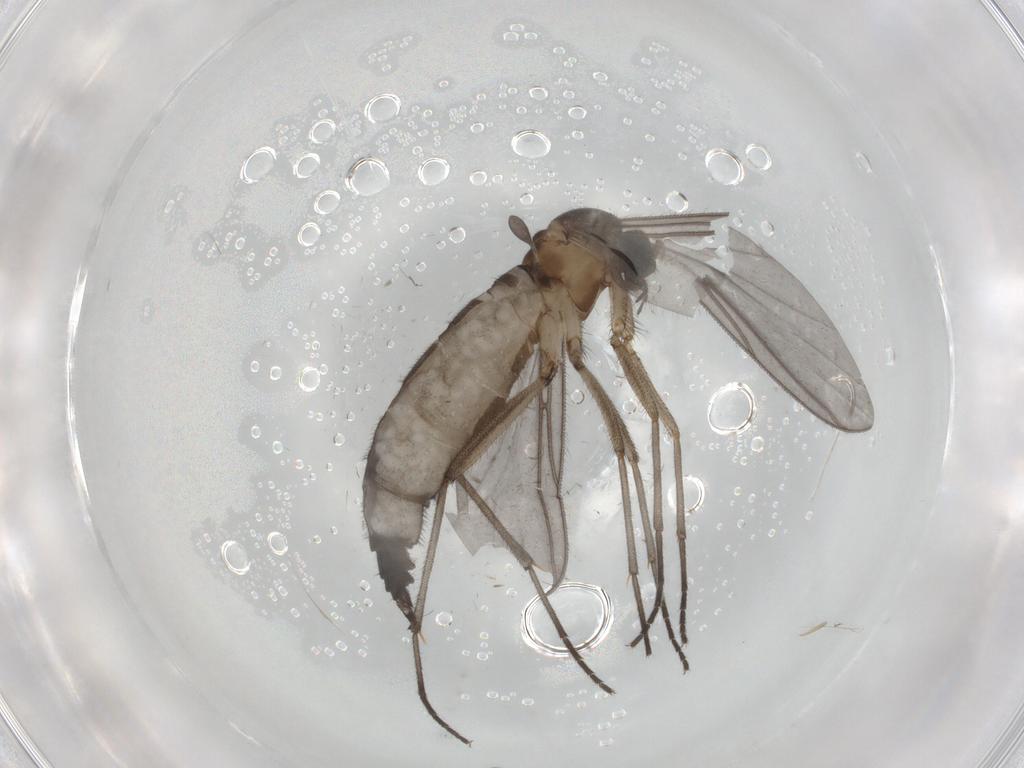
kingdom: Animalia
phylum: Arthropoda
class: Insecta
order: Diptera
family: Cecidomyiidae
